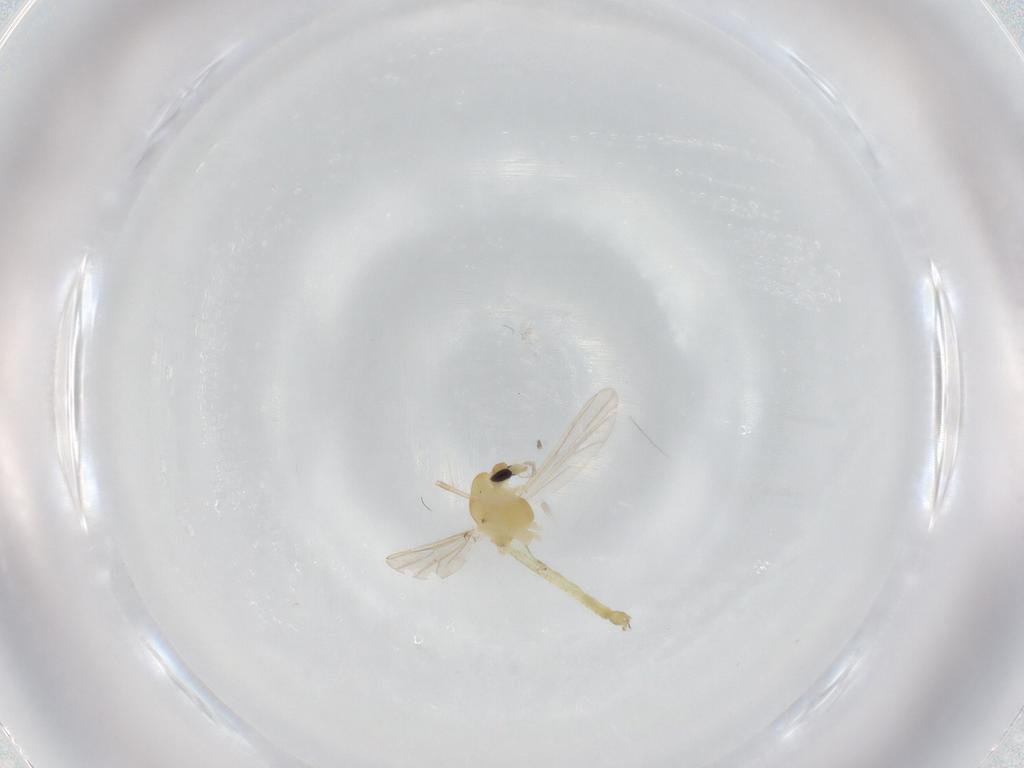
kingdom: Animalia
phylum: Arthropoda
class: Insecta
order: Diptera
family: Chironomidae
